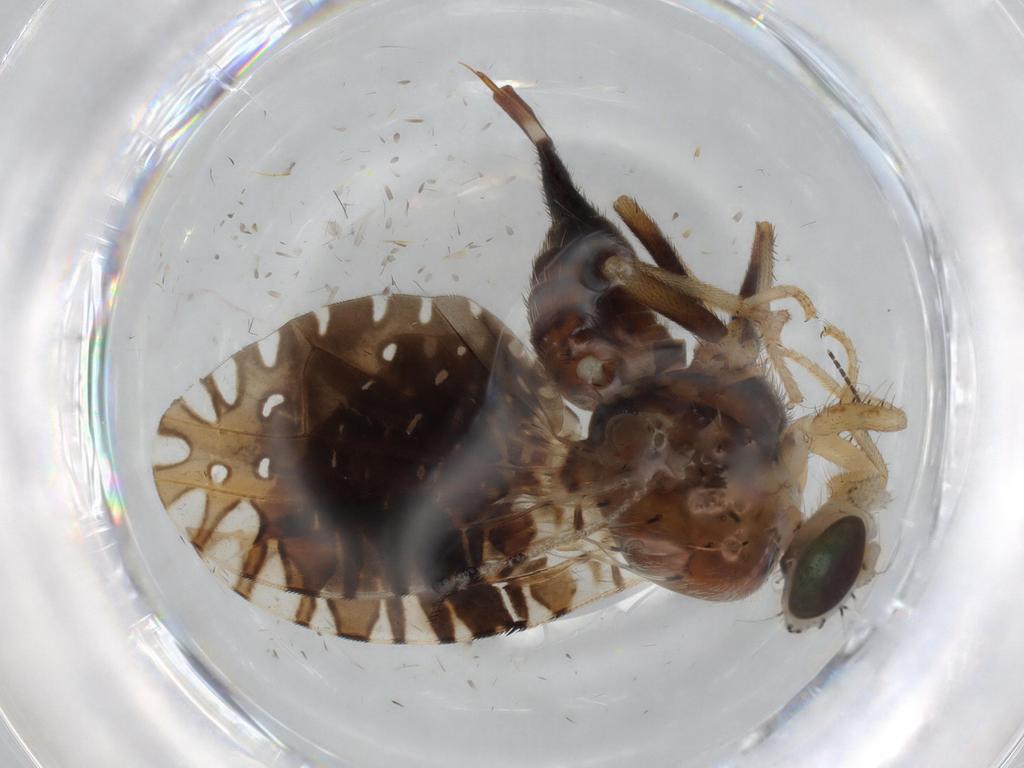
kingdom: Animalia
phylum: Arthropoda
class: Insecta
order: Diptera
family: Tephritidae
